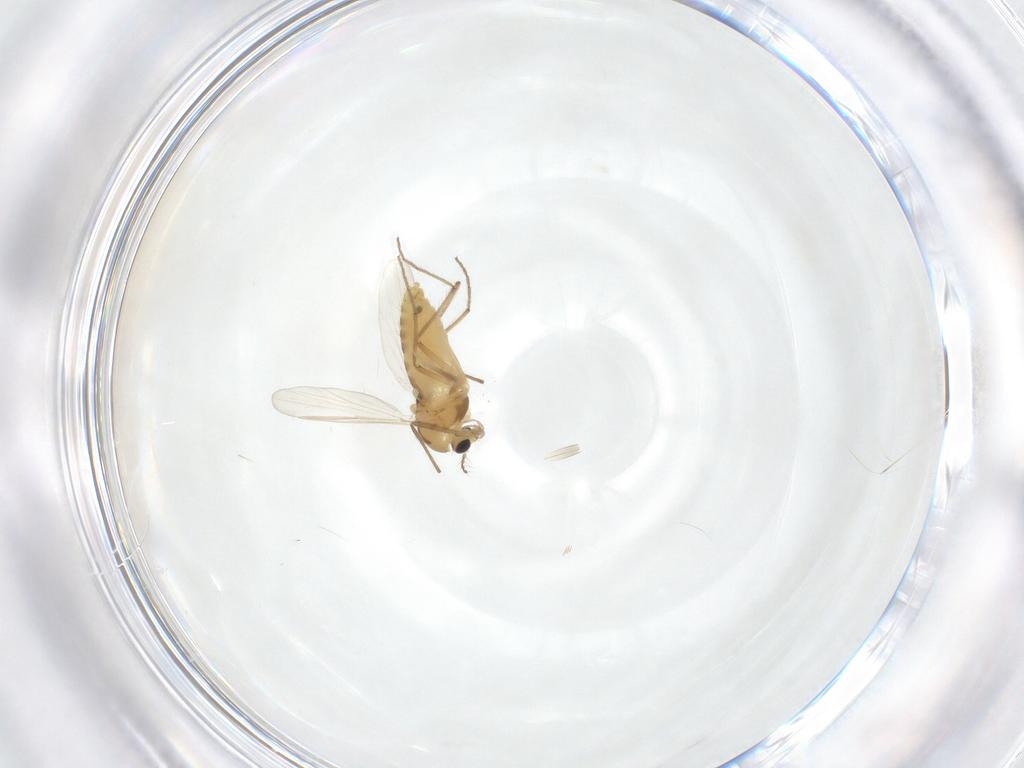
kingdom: Animalia
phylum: Arthropoda
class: Insecta
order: Diptera
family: Chironomidae
